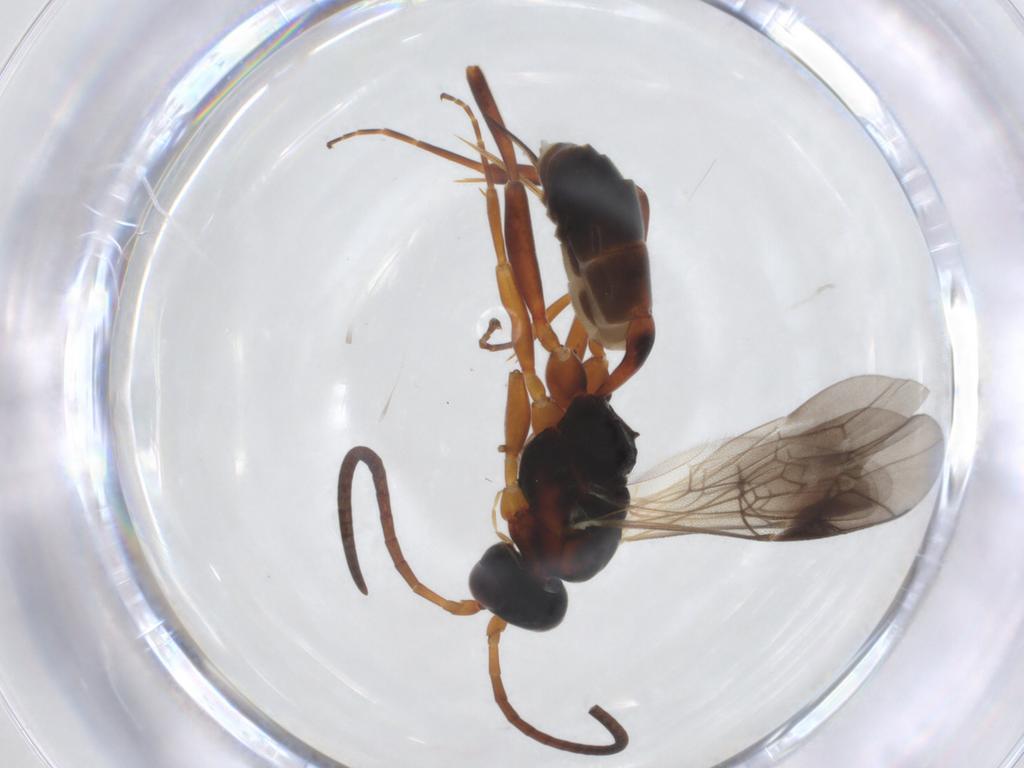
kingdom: Animalia
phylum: Arthropoda
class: Insecta
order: Hymenoptera
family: Ichneumonidae
